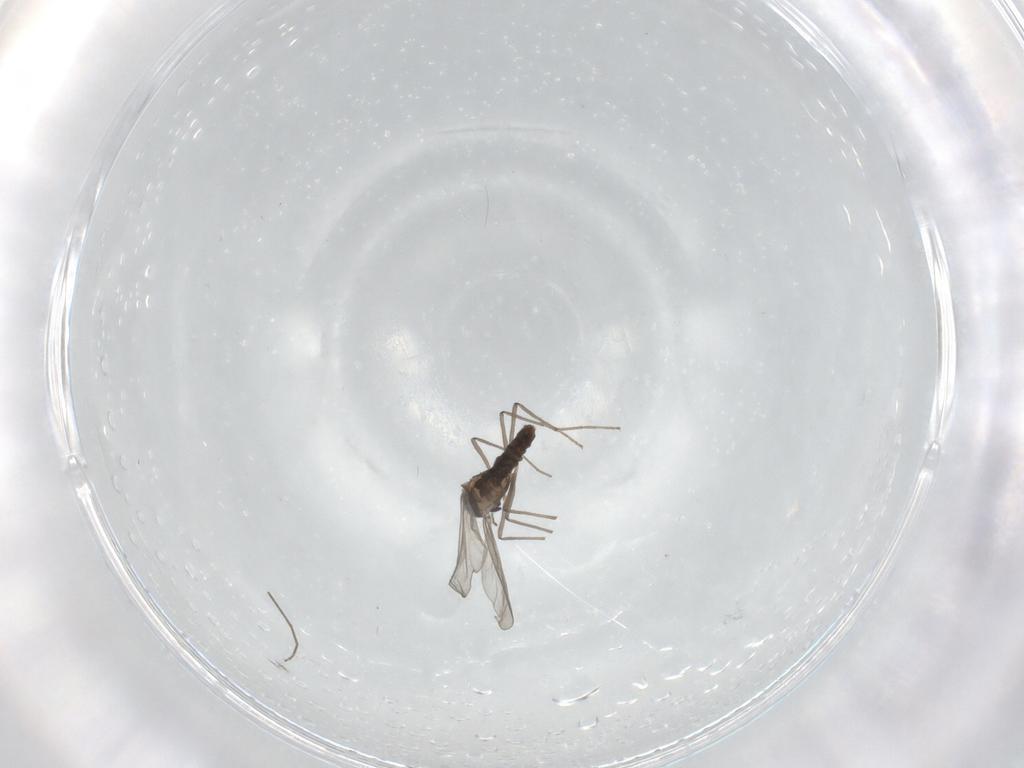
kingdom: Animalia
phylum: Arthropoda
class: Insecta
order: Diptera
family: Chironomidae
